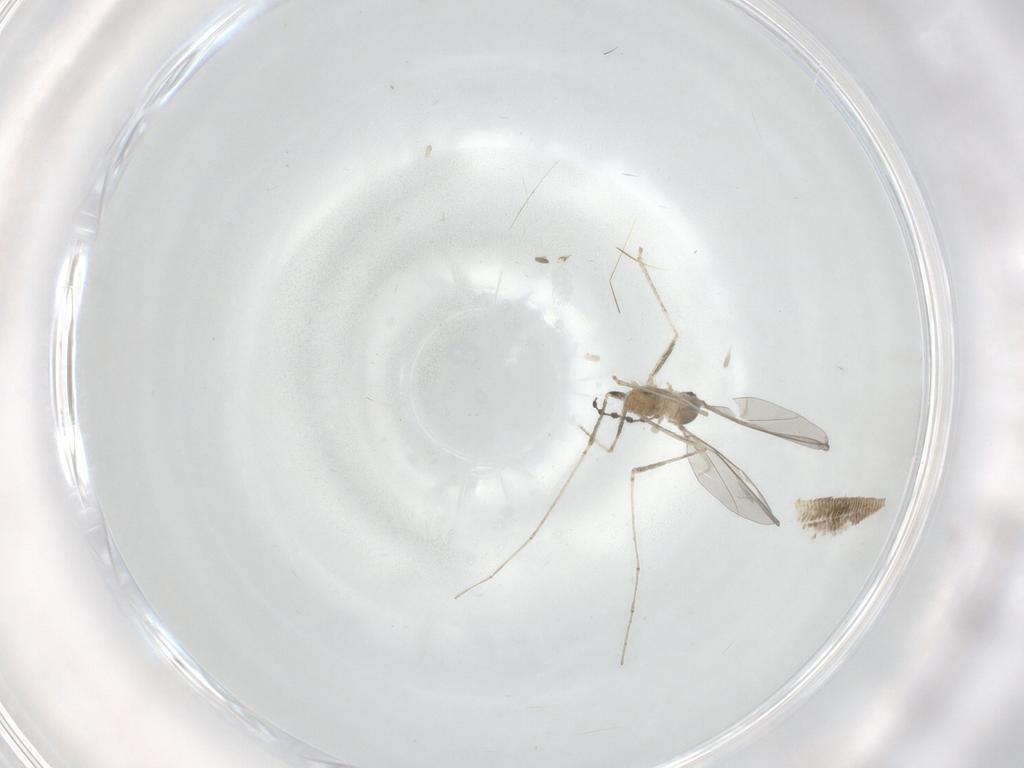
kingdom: Animalia
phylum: Arthropoda
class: Insecta
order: Diptera
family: Cecidomyiidae
